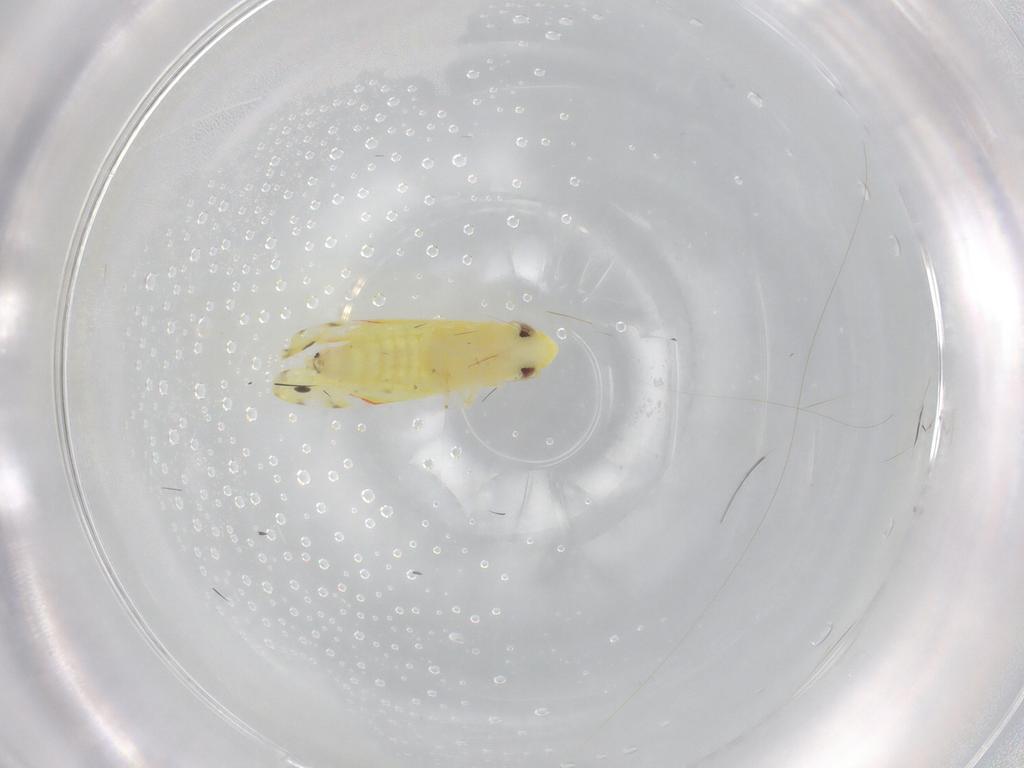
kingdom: Animalia
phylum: Arthropoda
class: Insecta
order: Hemiptera
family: Cicadellidae
